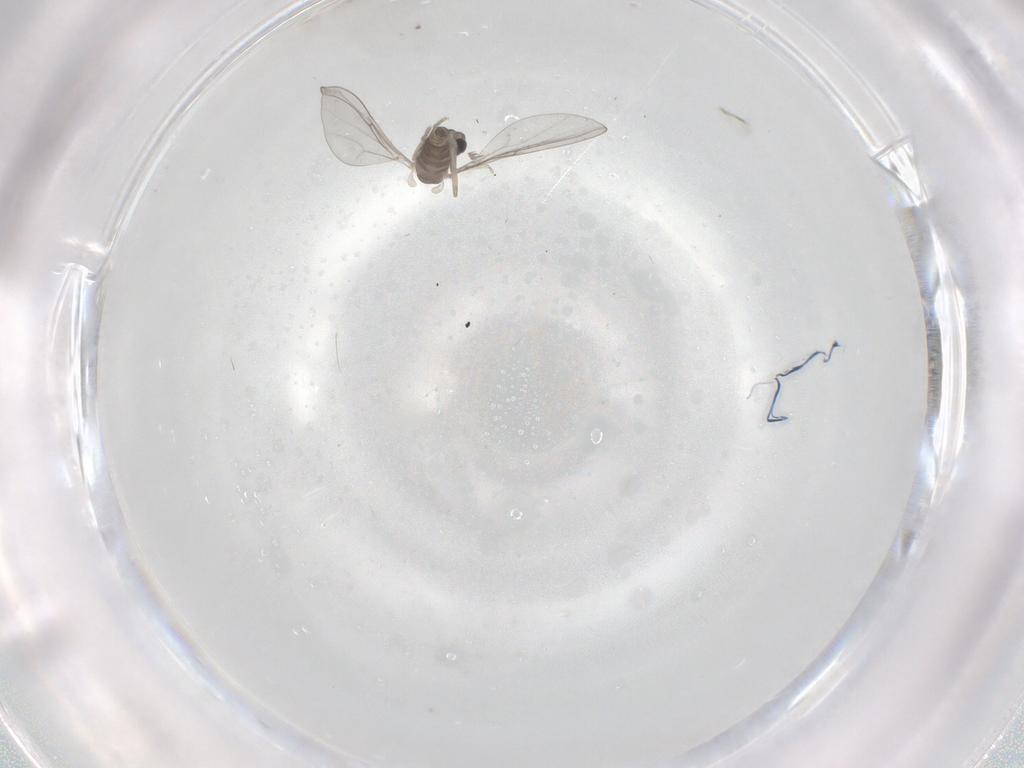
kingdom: Animalia
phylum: Arthropoda
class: Insecta
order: Diptera
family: Cecidomyiidae
